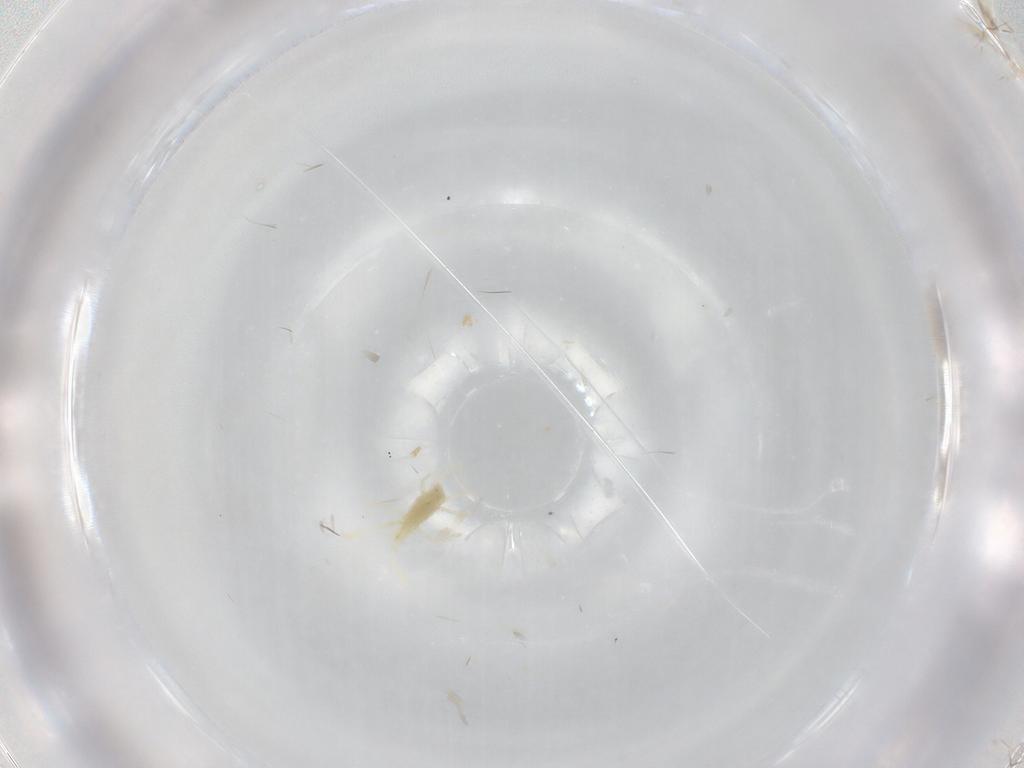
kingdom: Animalia
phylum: Arthropoda
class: Arachnida
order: Trombidiformes
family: Erythraeidae
